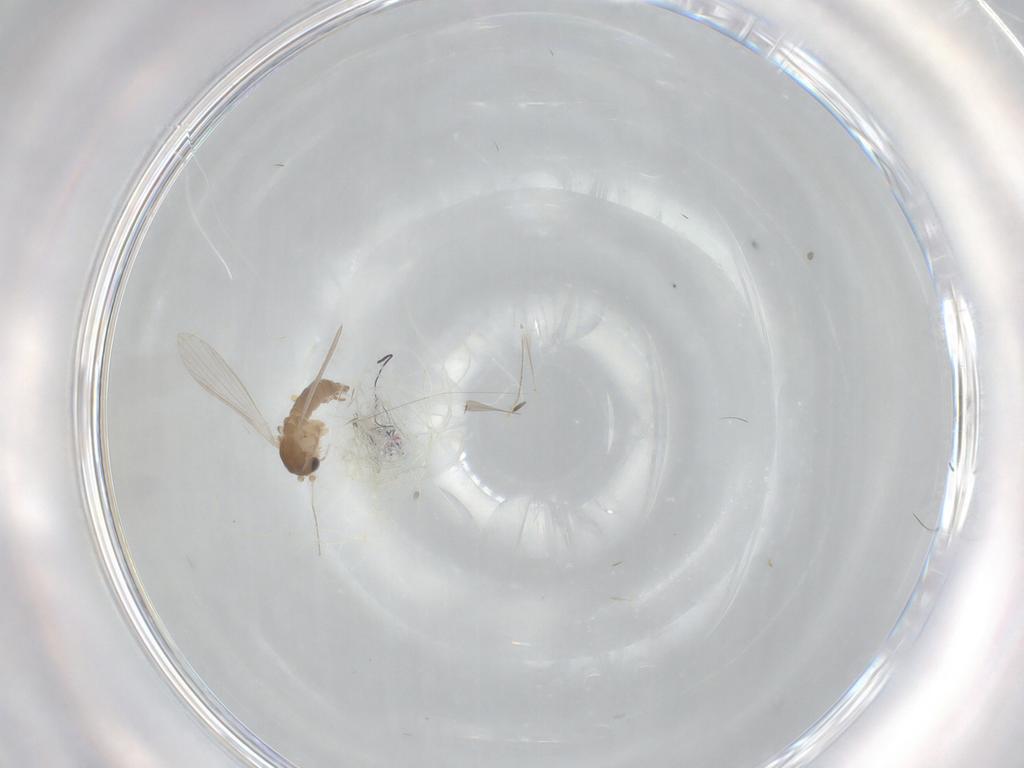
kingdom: Animalia
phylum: Arthropoda
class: Insecta
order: Diptera
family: Psychodidae
